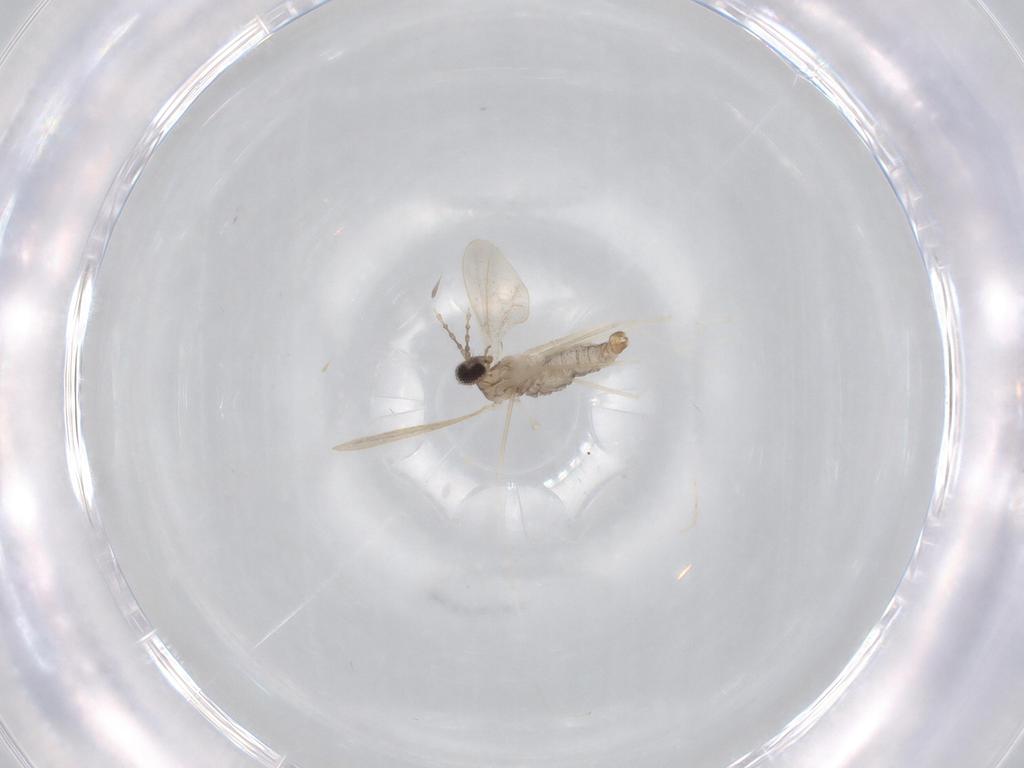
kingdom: Animalia
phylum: Arthropoda
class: Insecta
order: Diptera
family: Cecidomyiidae
